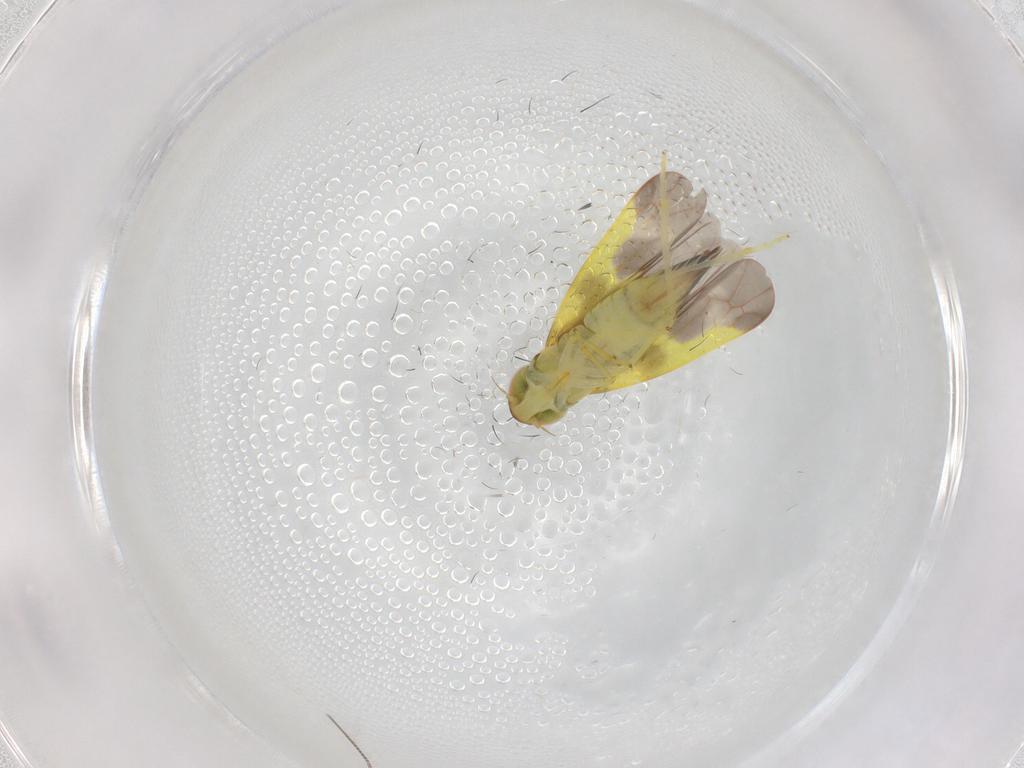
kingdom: Animalia
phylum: Arthropoda
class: Insecta
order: Hemiptera
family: Cicadellidae
